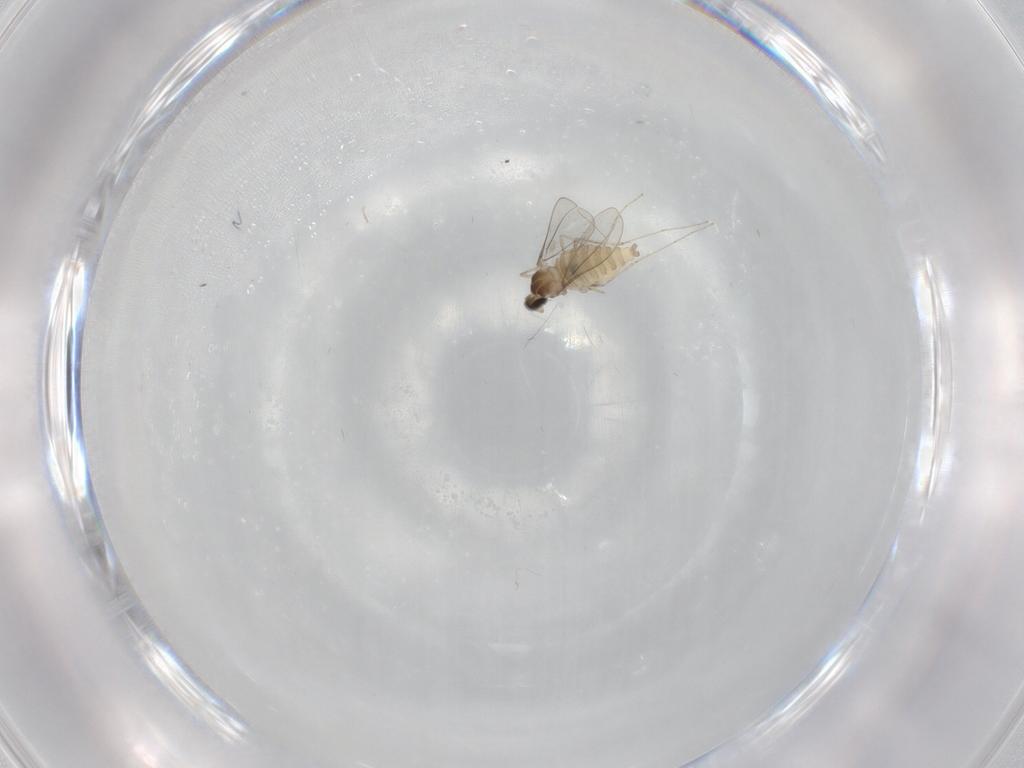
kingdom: Animalia
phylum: Arthropoda
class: Insecta
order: Diptera
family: Cecidomyiidae
